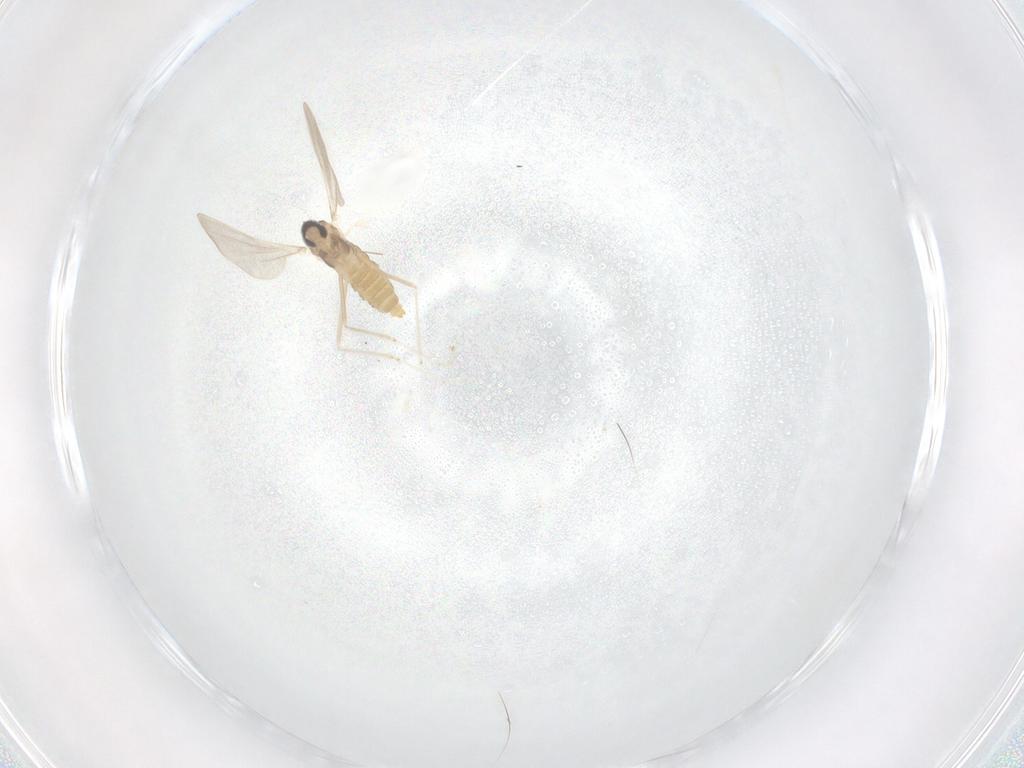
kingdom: Animalia
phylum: Arthropoda
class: Insecta
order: Diptera
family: Cecidomyiidae
